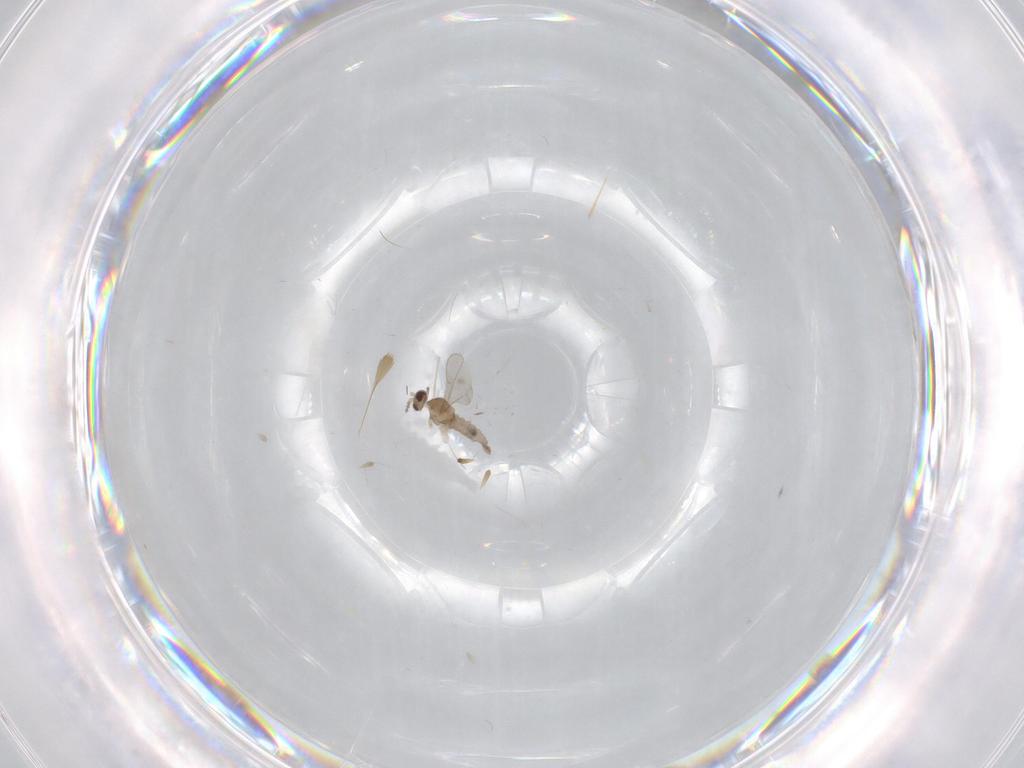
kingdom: Animalia
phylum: Arthropoda
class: Insecta
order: Diptera
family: Cecidomyiidae
